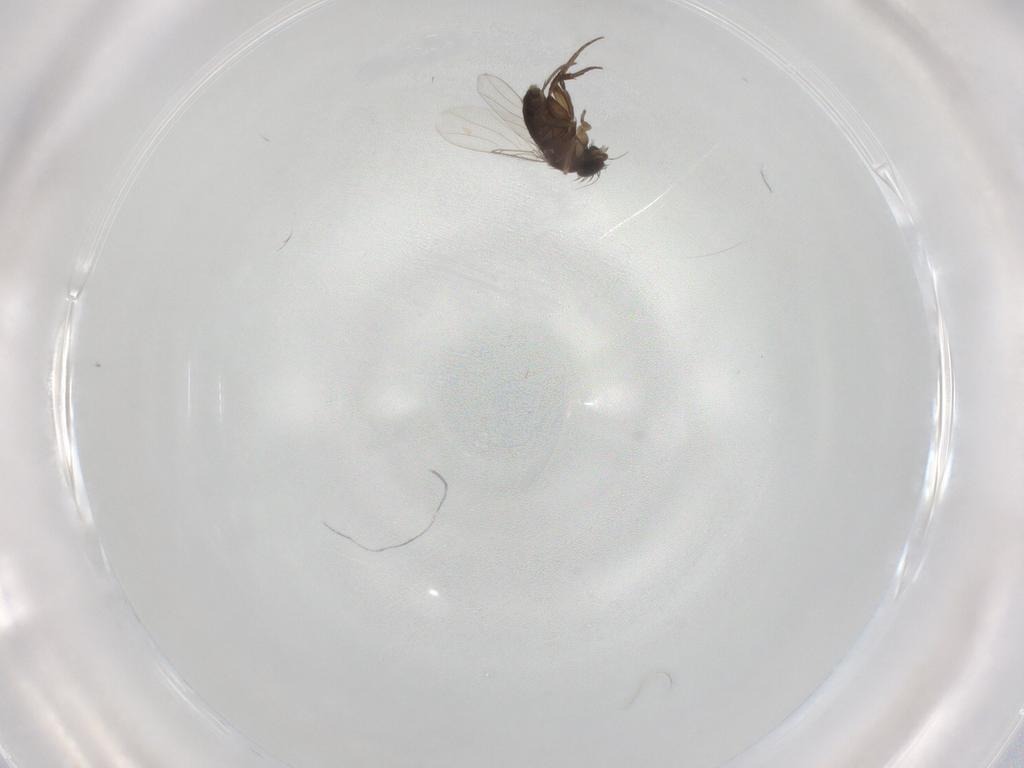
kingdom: Animalia
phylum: Arthropoda
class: Insecta
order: Diptera
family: Phoridae
